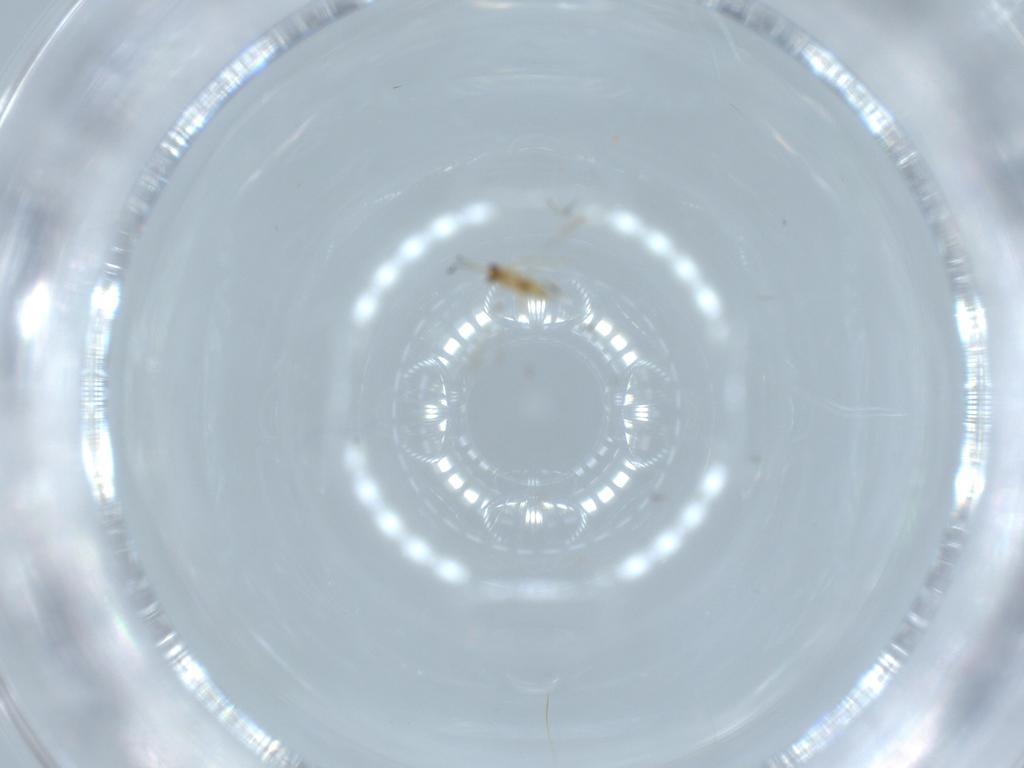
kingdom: Animalia
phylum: Arthropoda
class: Insecta
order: Hymenoptera
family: Mymaridae
